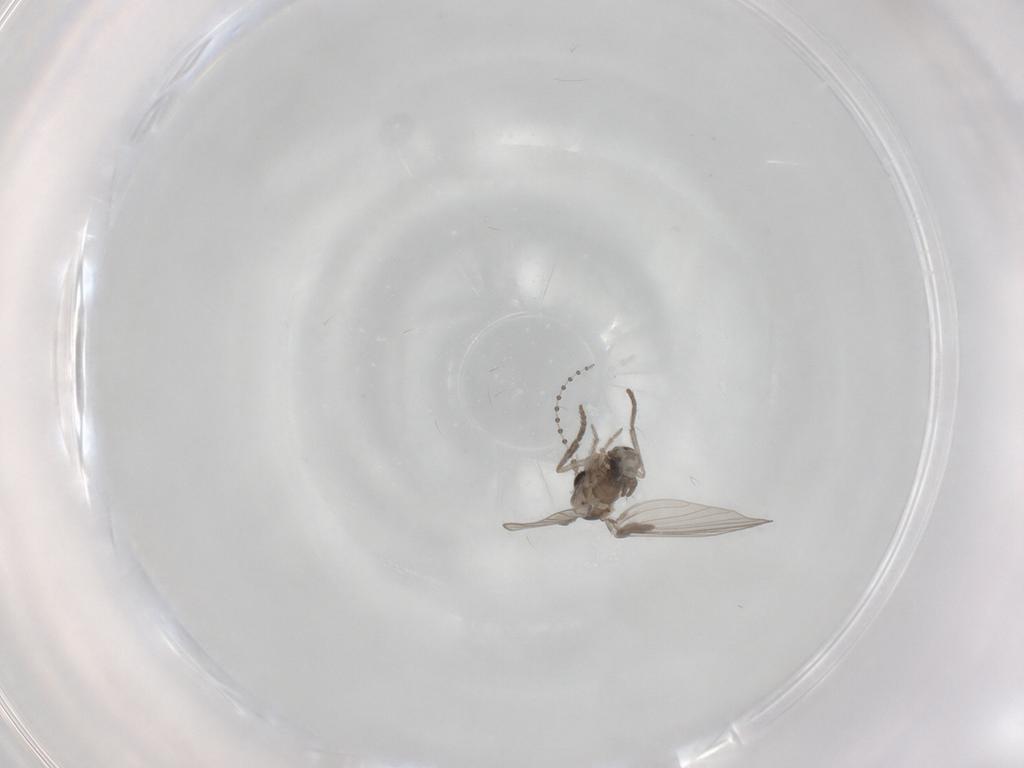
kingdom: Animalia
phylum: Arthropoda
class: Insecta
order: Diptera
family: Psychodidae
